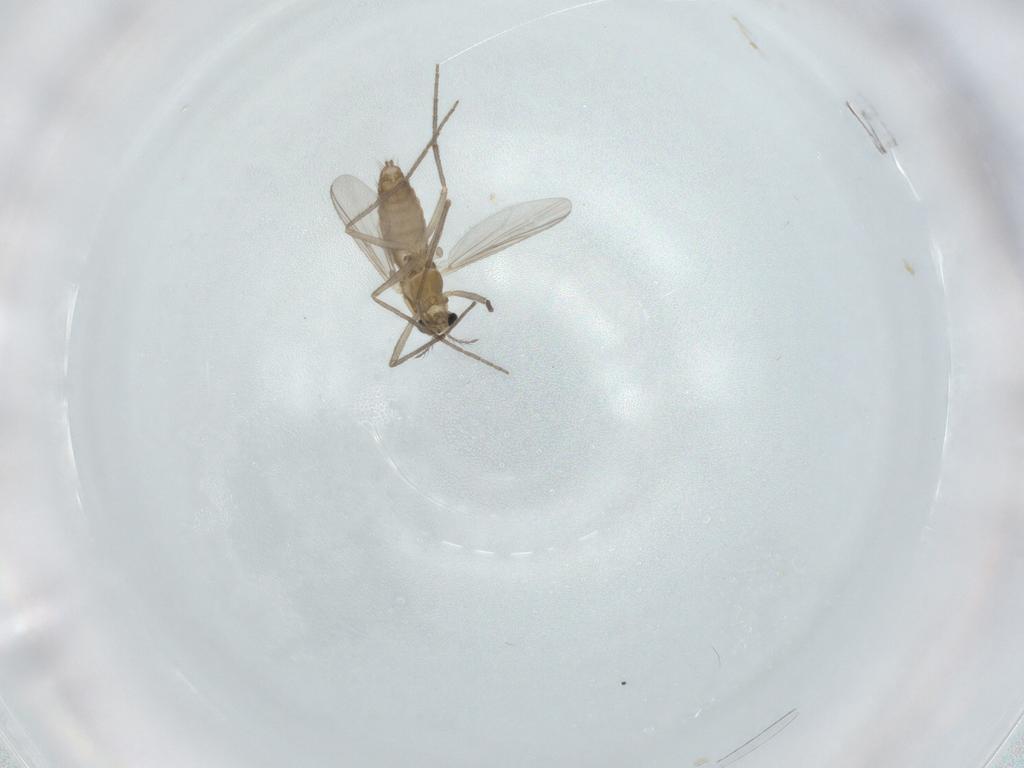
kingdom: Animalia
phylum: Arthropoda
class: Insecta
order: Diptera
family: Chironomidae
